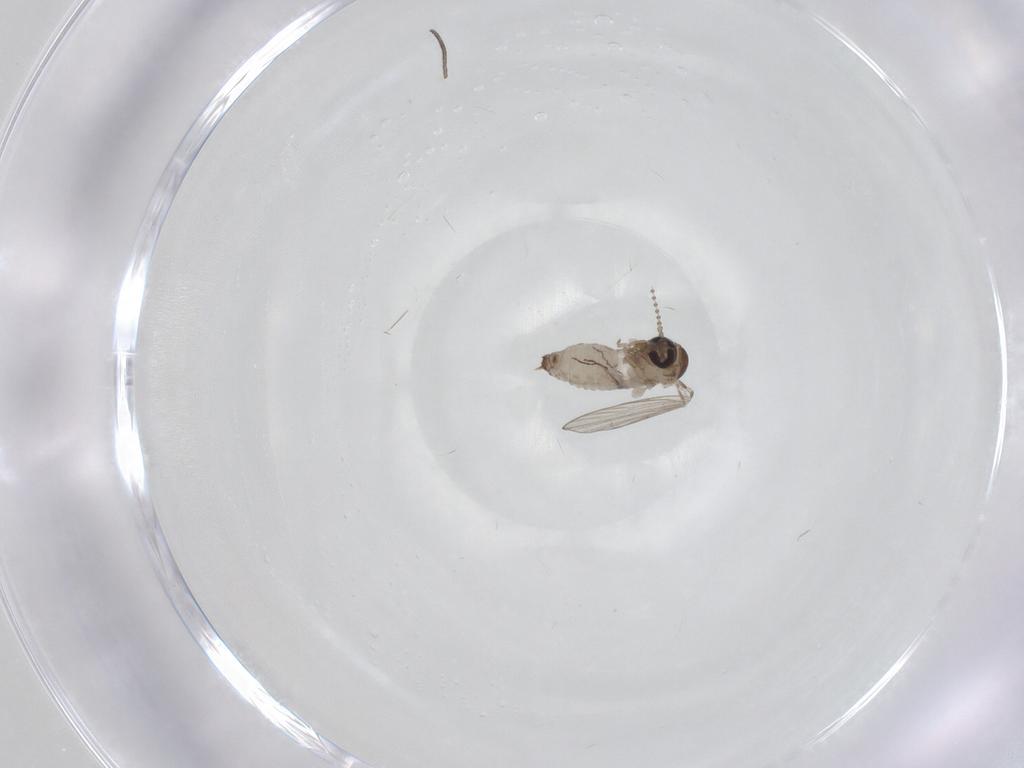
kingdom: Animalia
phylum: Arthropoda
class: Insecta
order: Diptera
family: Psychodidae
